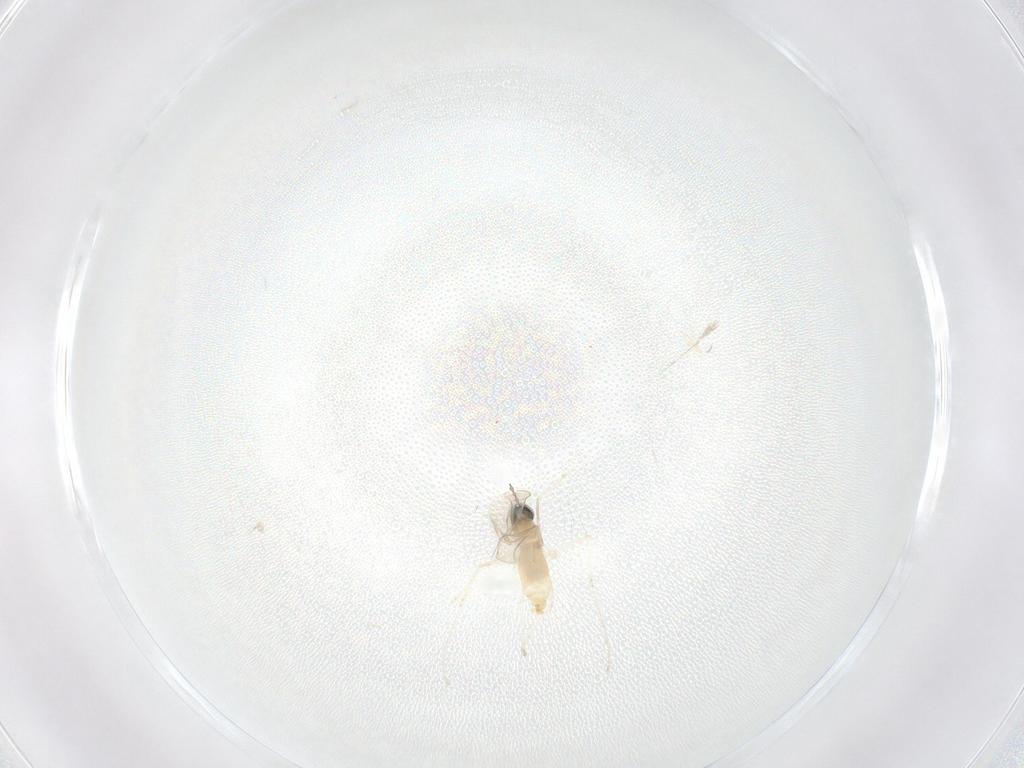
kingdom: Animalia
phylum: Arthropoda
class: Insecta
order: Diptera
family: Cecidomyiidae
